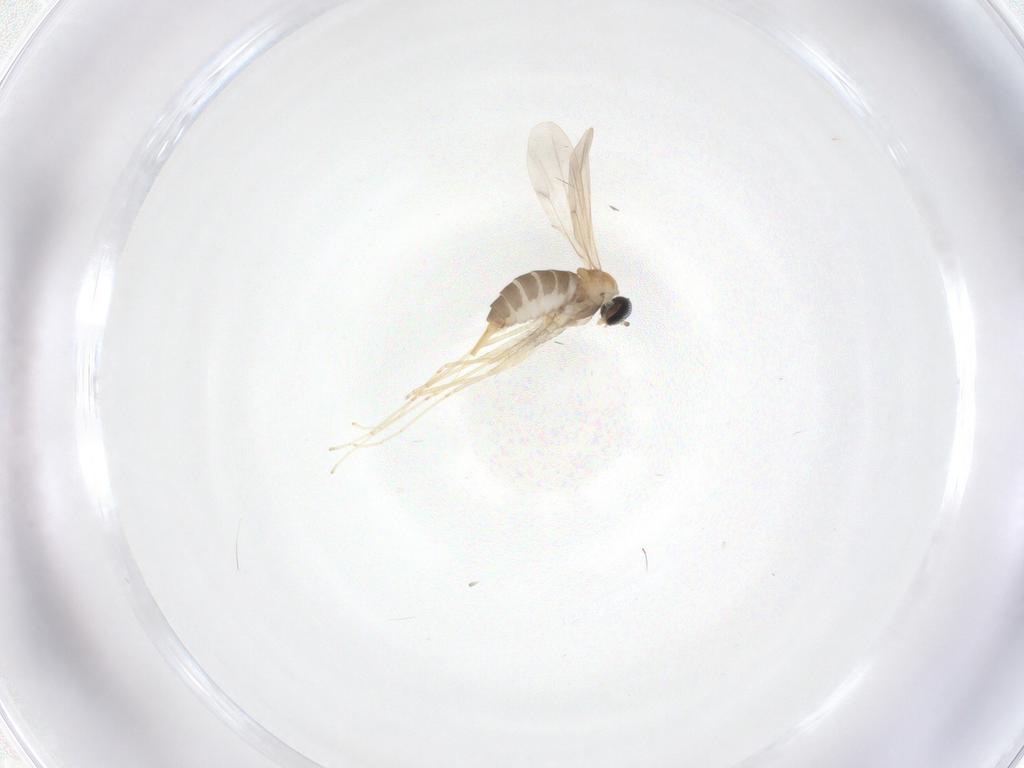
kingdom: Animalia
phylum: Arthropoda
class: Insecta
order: Diptera
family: Cecidomyiidae
